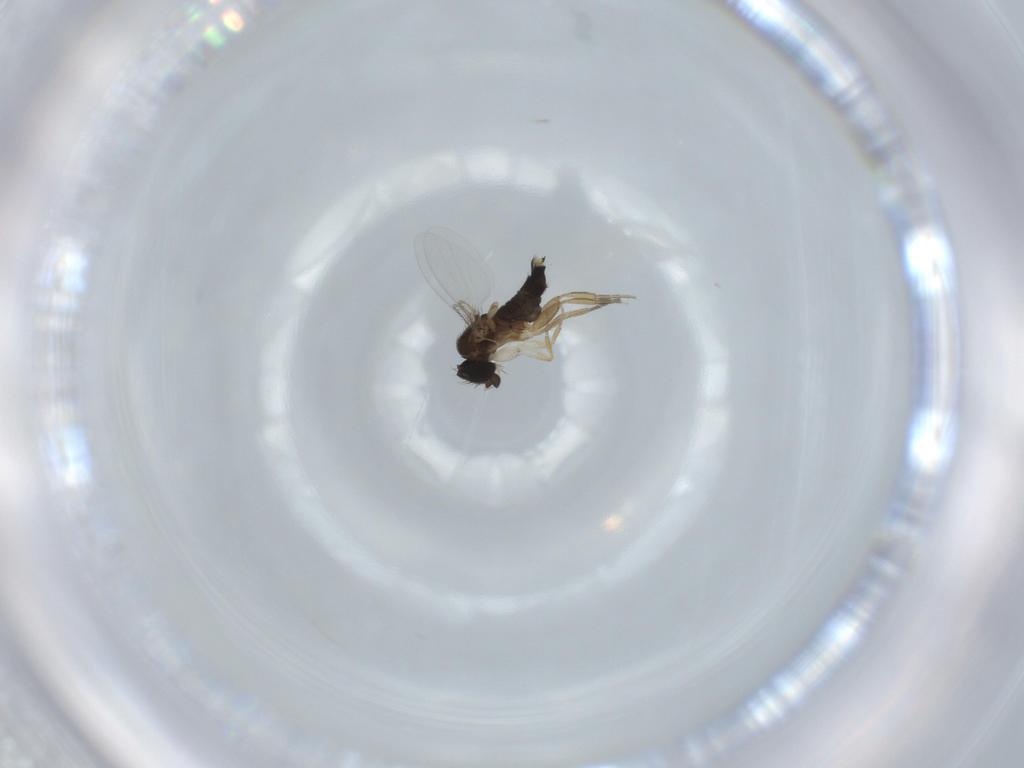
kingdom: Animalia
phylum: Arthropoda
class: Insecta
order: Diptera
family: Phoridae
